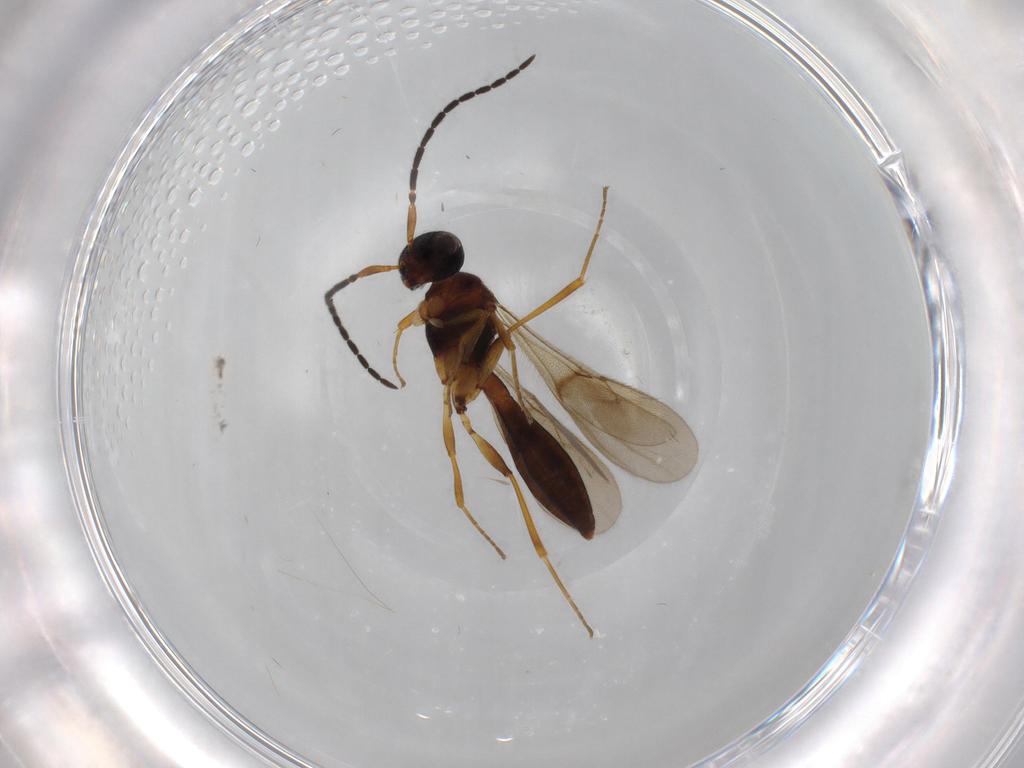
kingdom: Animalia
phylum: Arthropoda
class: Insecta
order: Hymenoptera
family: Scelionidae
